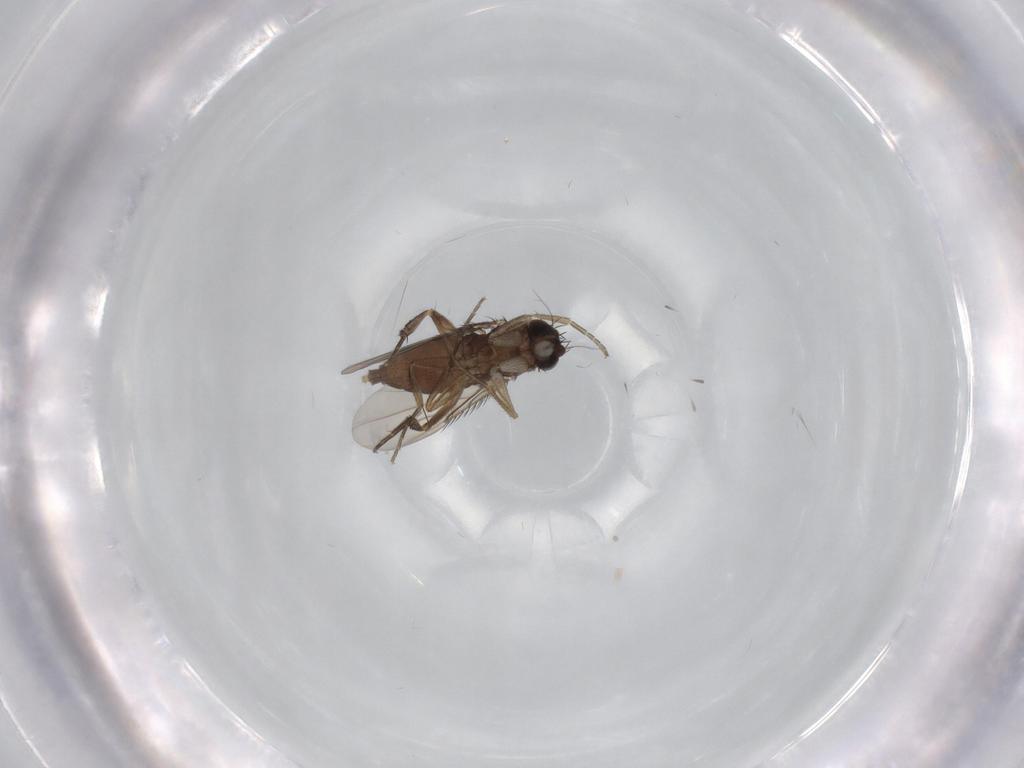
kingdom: Animalia
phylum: Arthropoda
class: Insecta
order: Diptera
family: Phoridae
